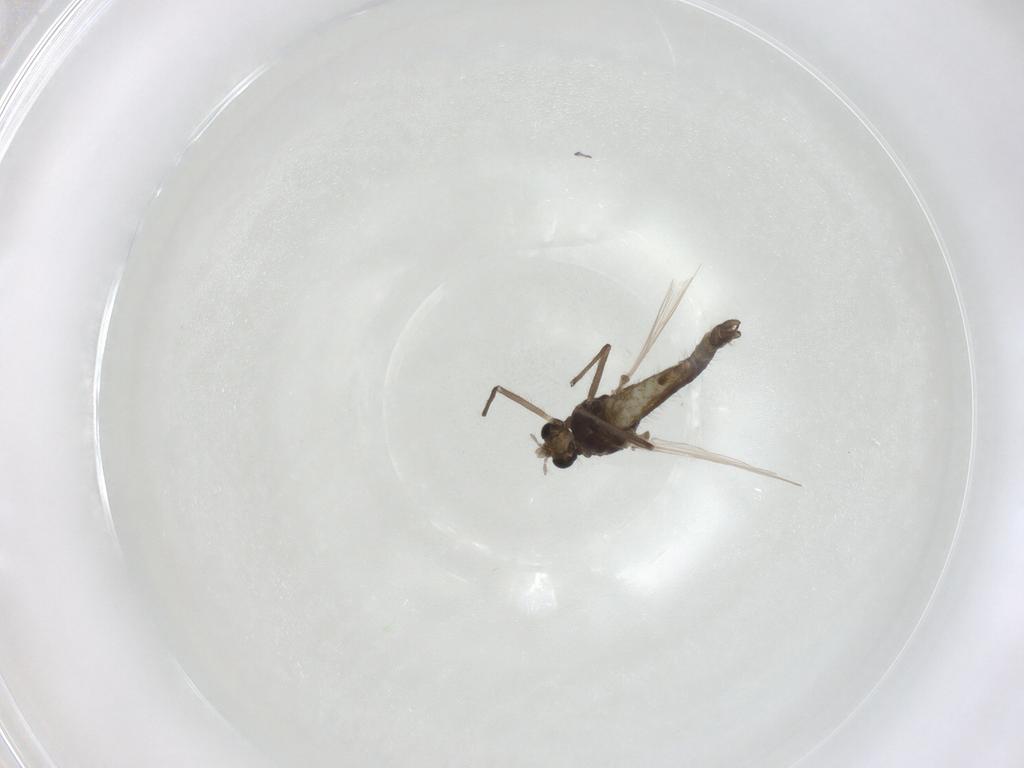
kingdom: Animalia
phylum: Arthropoda
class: Insecta
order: Diptera
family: Chironomidae
